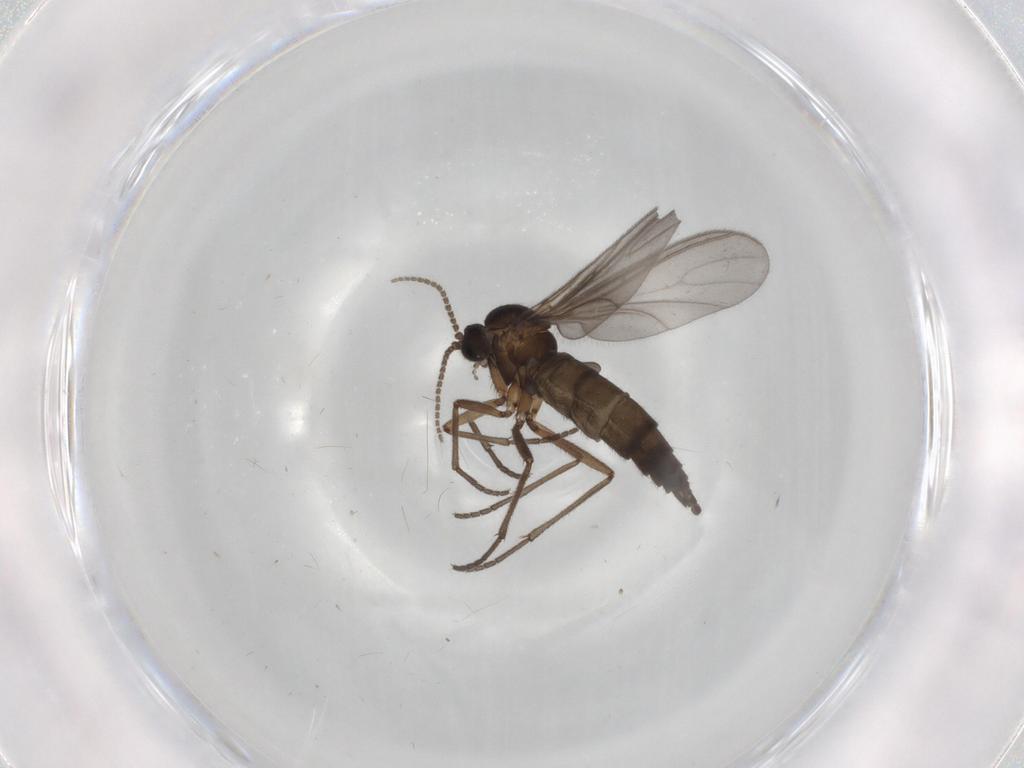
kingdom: Animalia
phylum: Arthropoda
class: Insecta
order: Diptera
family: Sciaridae
